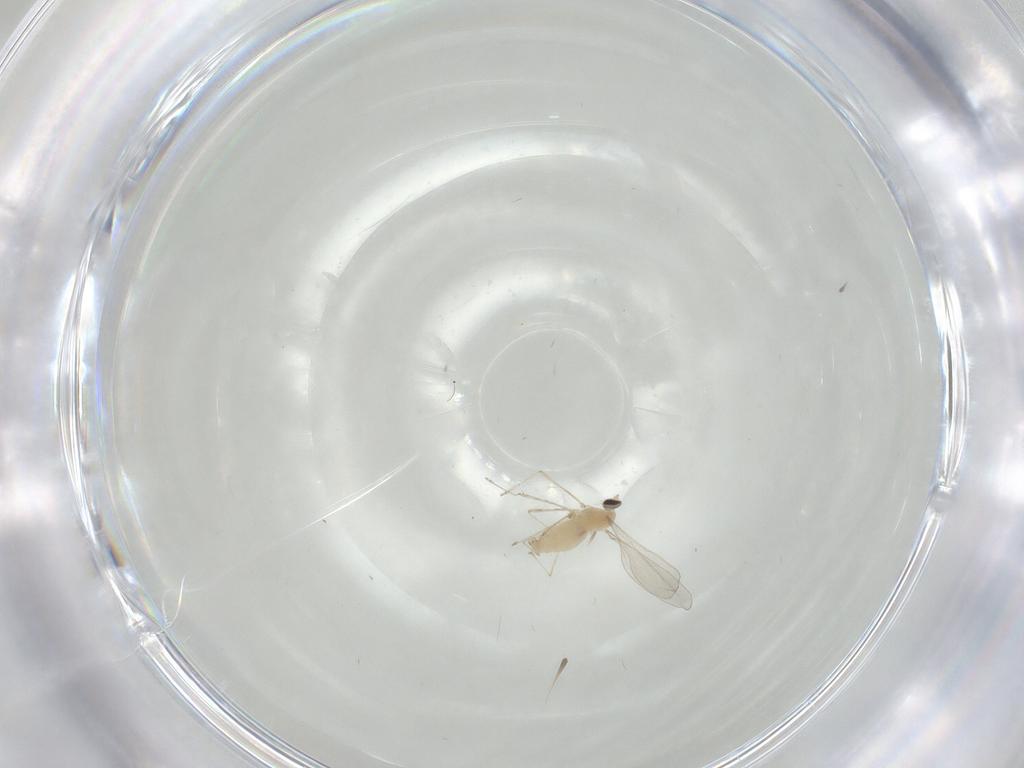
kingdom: Animalia
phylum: Arthropoda
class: Insecta
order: Diptera
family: Cecidomyiidae
